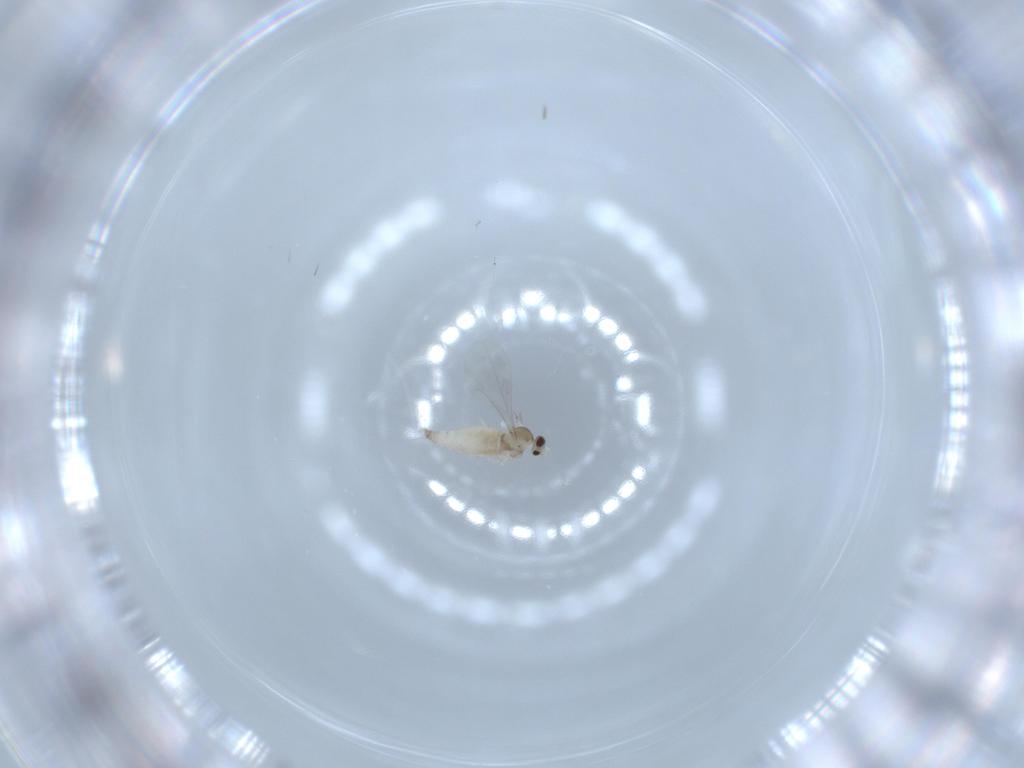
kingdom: Animalia
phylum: Arthropoda
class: Insecta
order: Diptera
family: Cecidomyiidae
